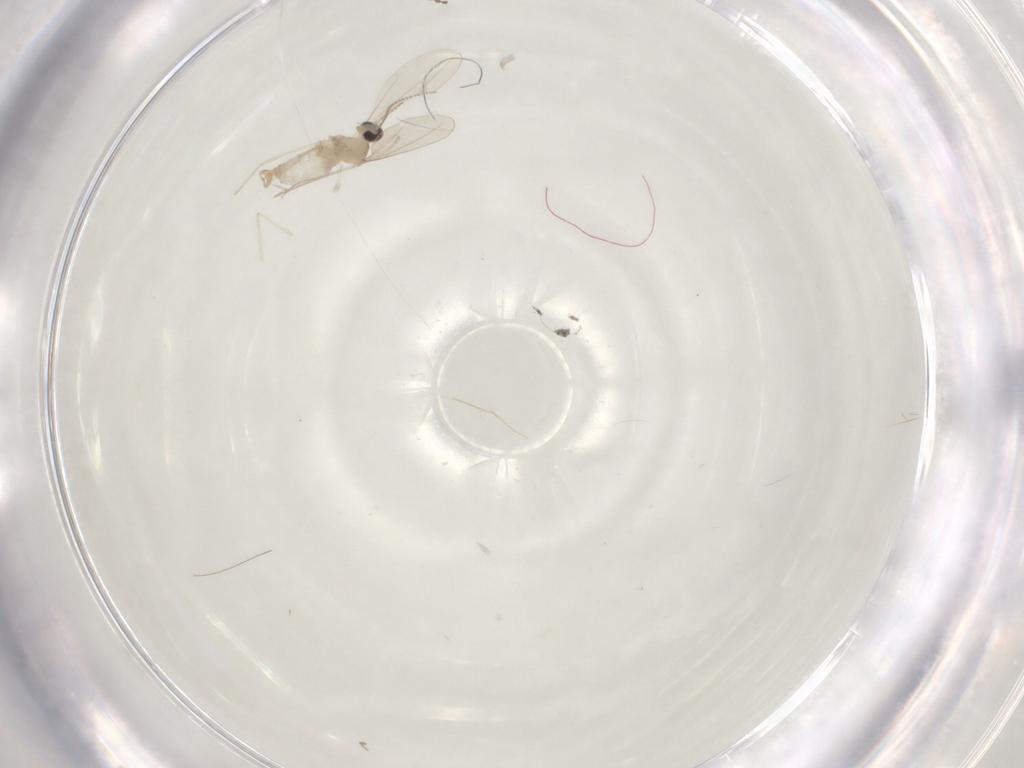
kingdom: Animalia
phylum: Arthropoda
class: Insecta
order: Diptera
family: Cecidomyiidae
